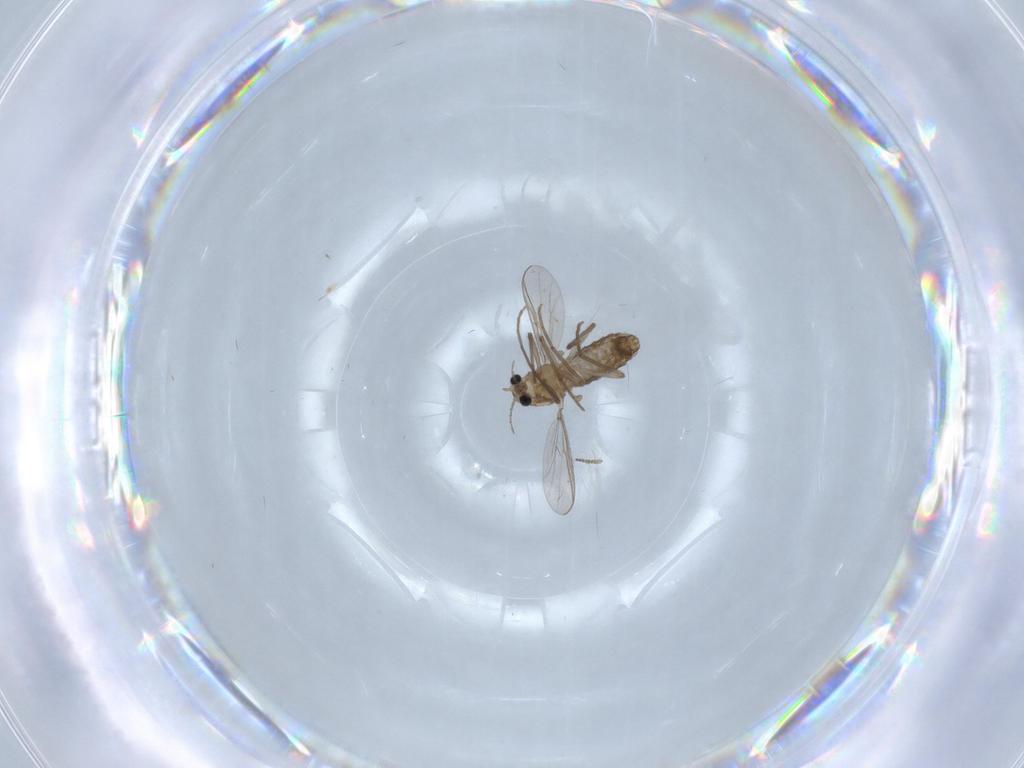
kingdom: Animalia
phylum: Arthropoda
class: Insecta
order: Diptera
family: Chironomidae
